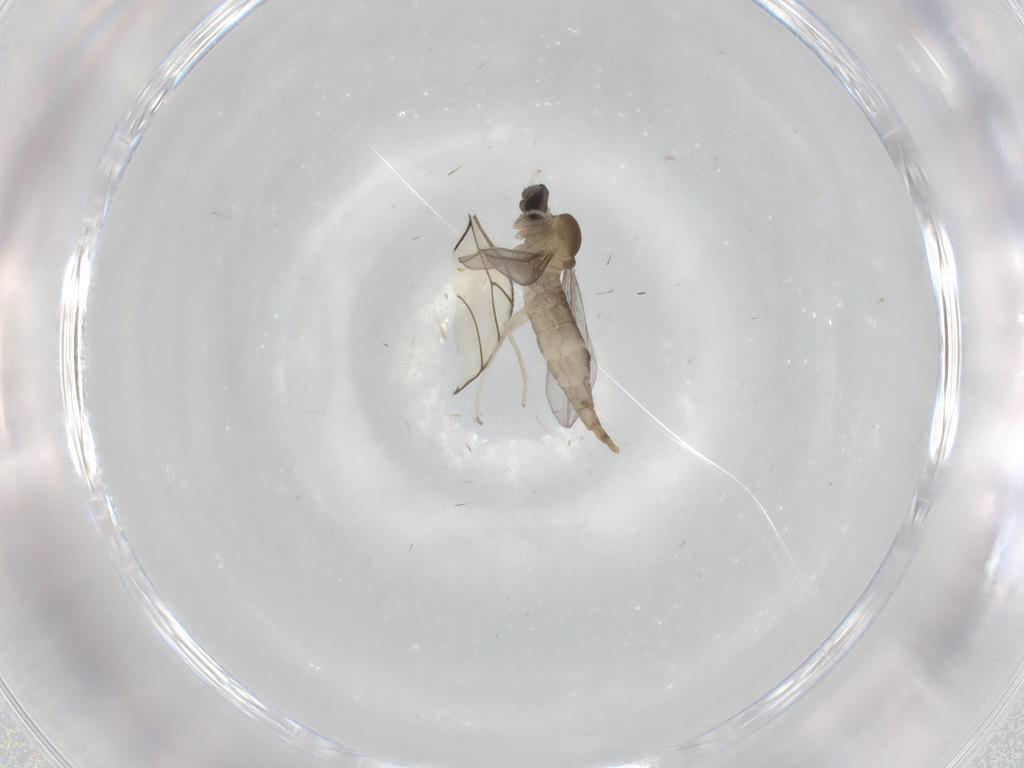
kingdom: Animalia
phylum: Arthropoda
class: Insecta
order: Diptera
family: Cecidomyiidae
